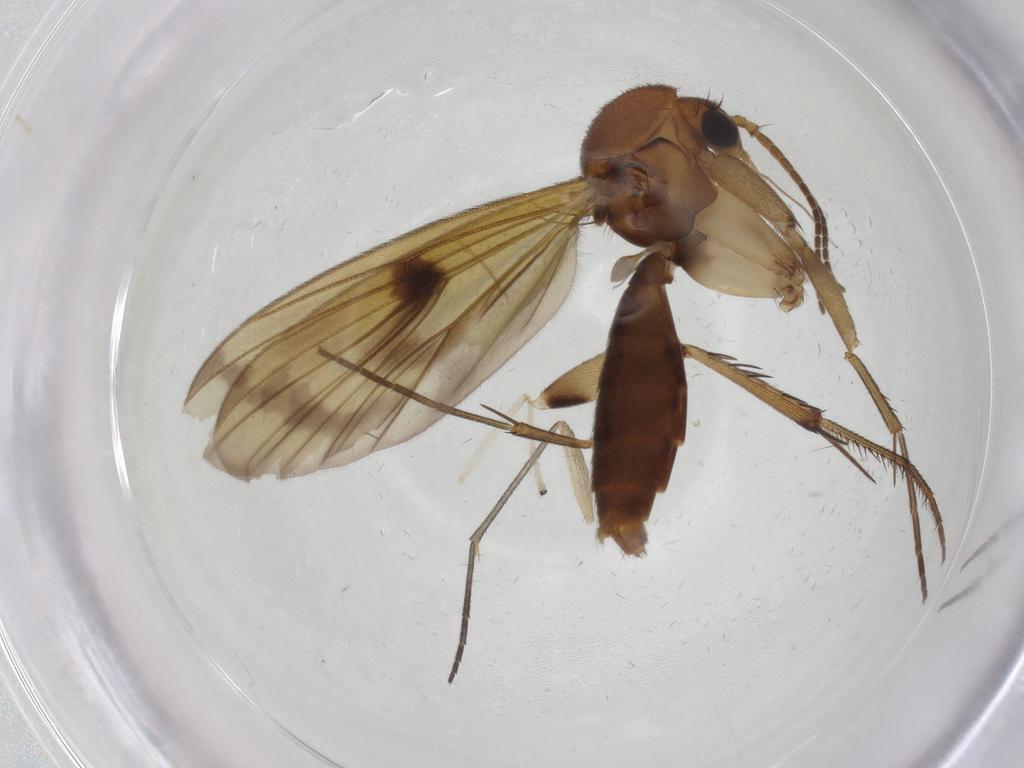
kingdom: Animalia
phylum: Arthropoda
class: Insecta
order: Diptera
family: Chironomidae
